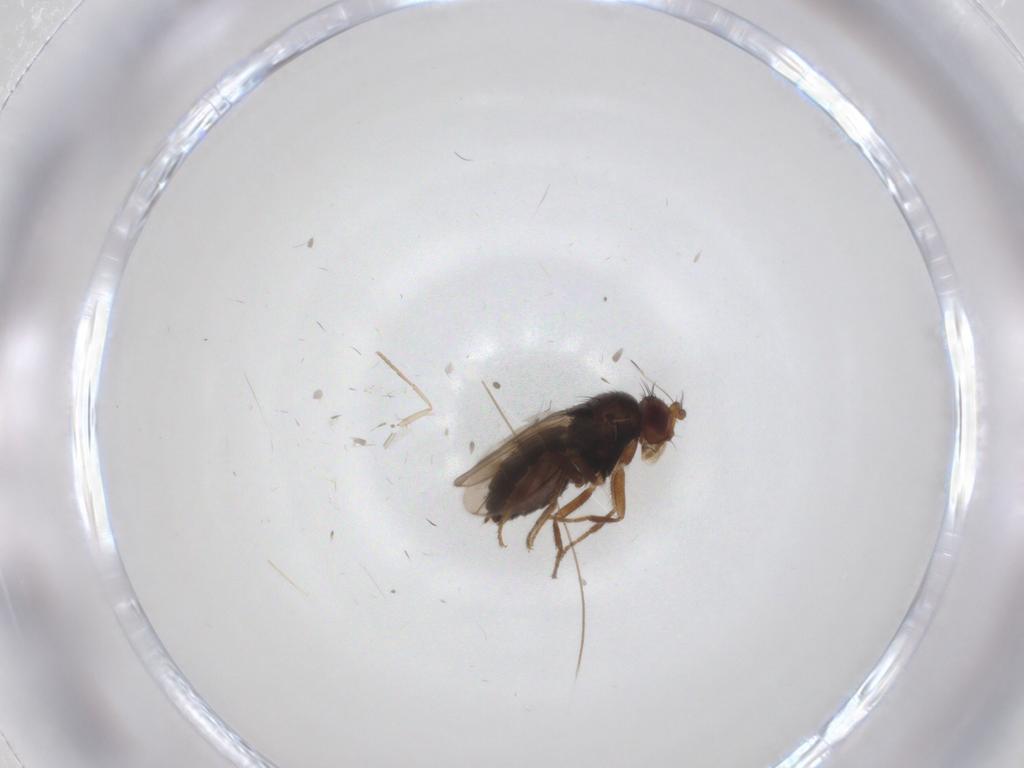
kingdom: Animalia
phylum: Arthropoda
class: Insecta
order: Diptera
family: Sphaeroceridae
